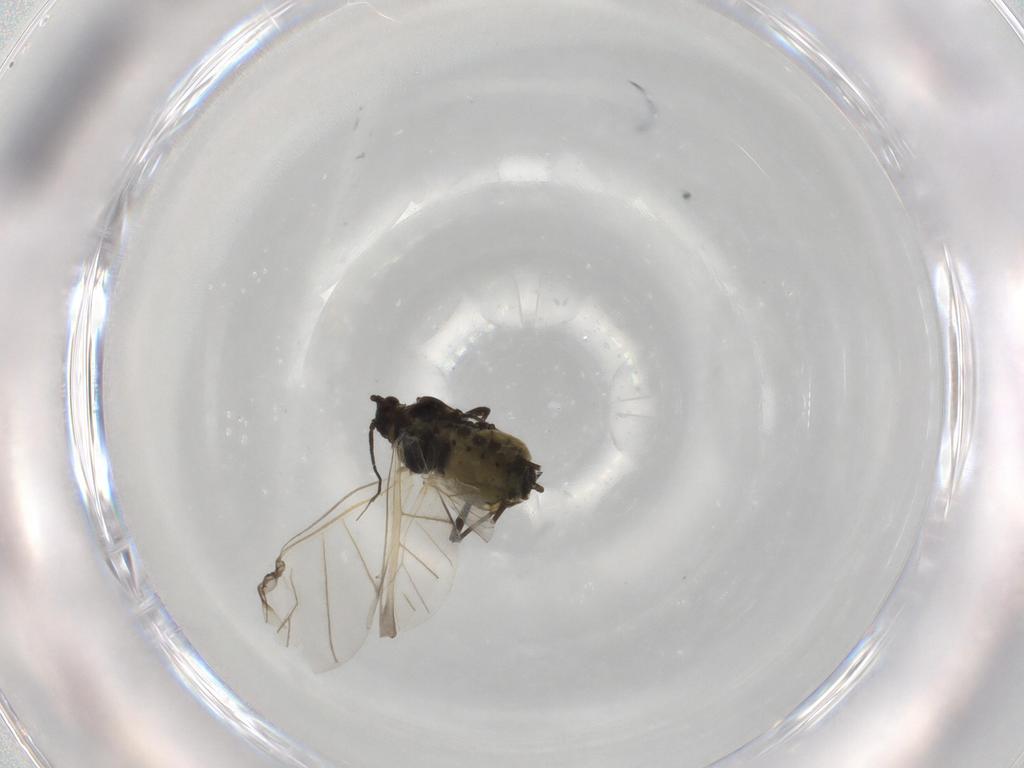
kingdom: Animalia
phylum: Arthropoda
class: Insecta
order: Hemiptera
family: Aphididae
